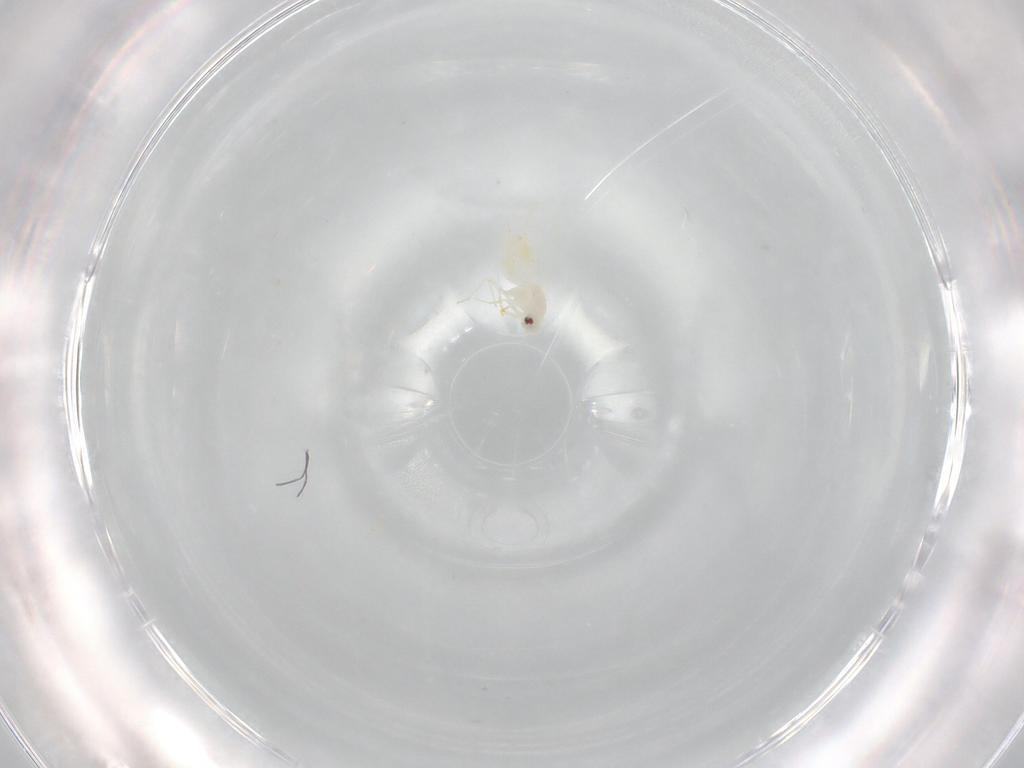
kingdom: Animalia
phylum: Arthropoda
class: Insecta
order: Hemiptera
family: Aleyrodidae
